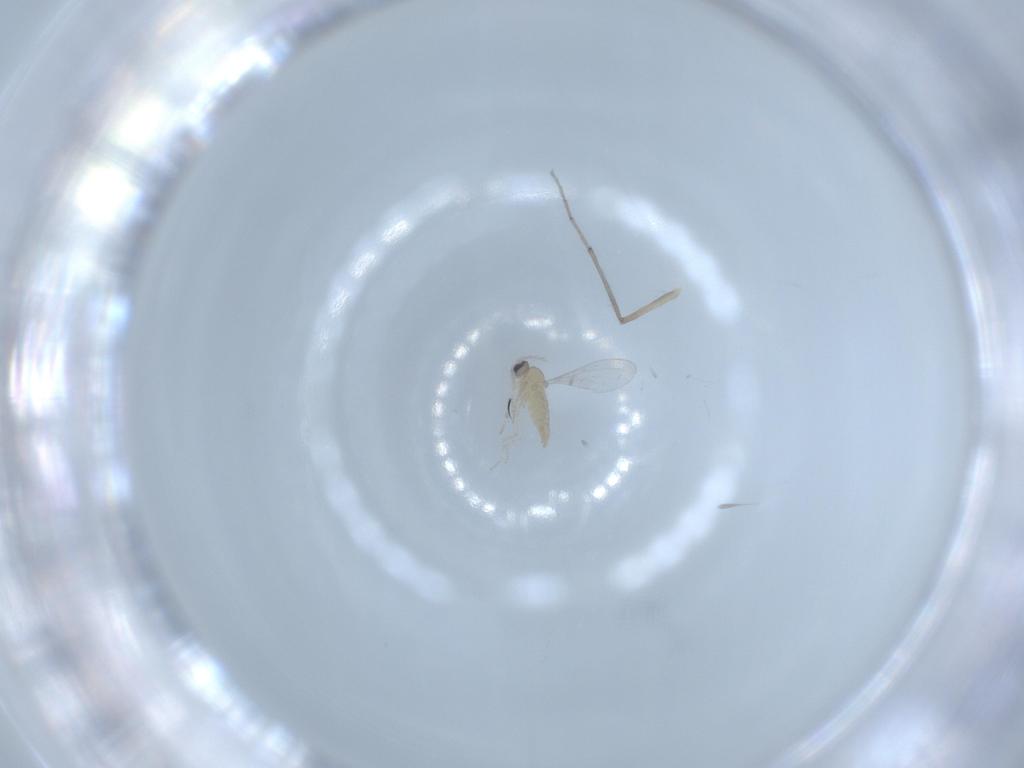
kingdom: Animalia
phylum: Arthropoda
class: Insecta
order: Diptera
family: Cecidomyiidae
